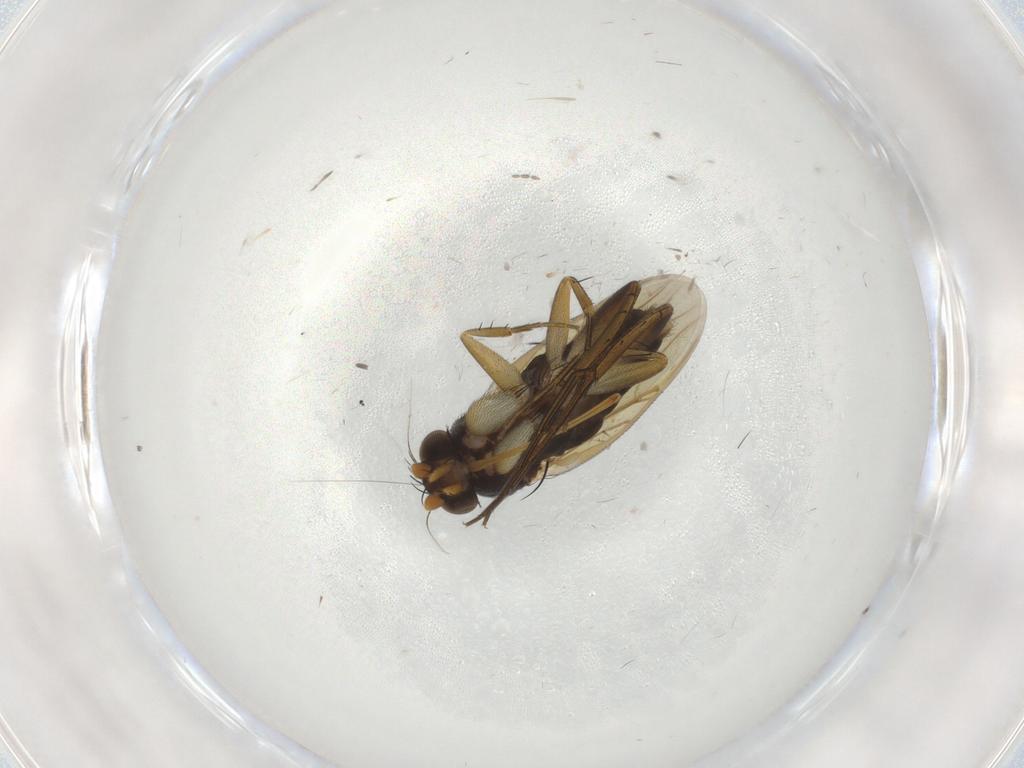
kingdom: Animalia
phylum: Arthropoda
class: Insecta
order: Diptera
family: Phoridae
